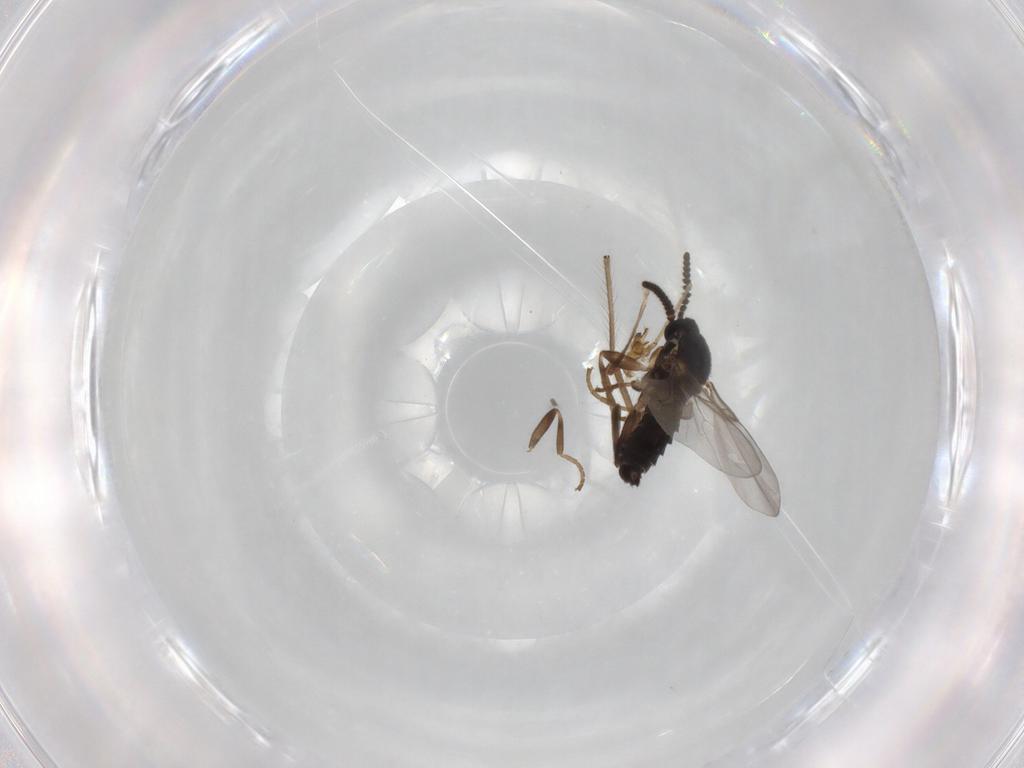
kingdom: Animalia
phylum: Arthropoda
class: Insecta
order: Diptera
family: Scatopsidae
